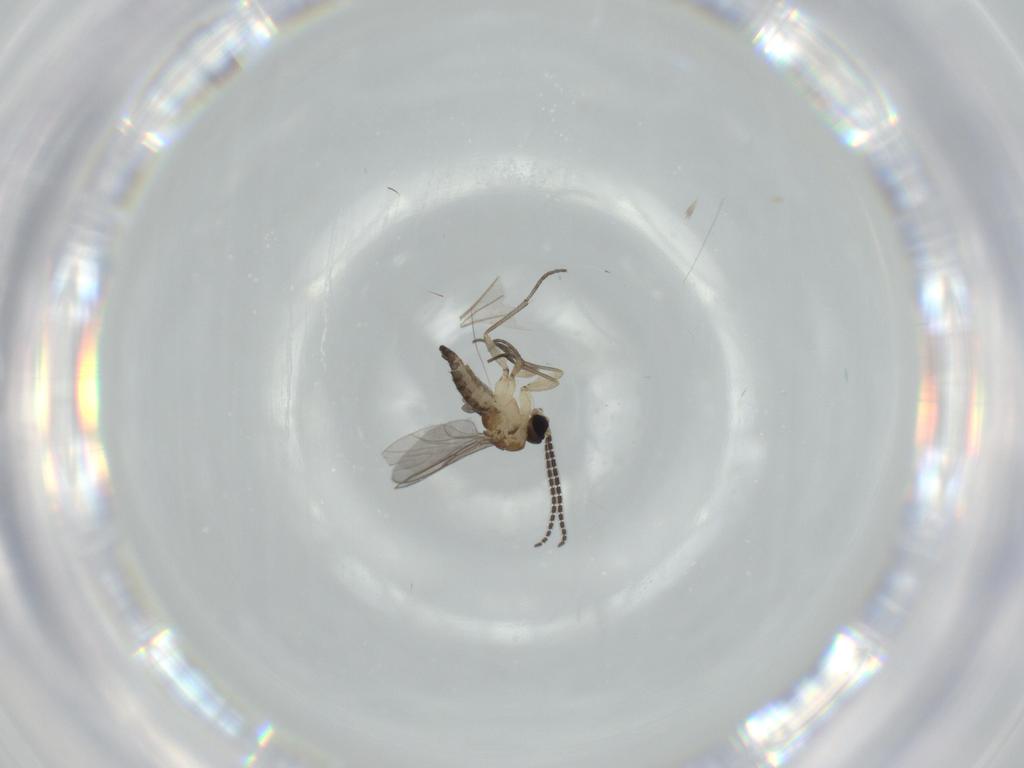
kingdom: Animalia
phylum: Arthropoda
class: Insecta
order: Diptera
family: Sciaridae
